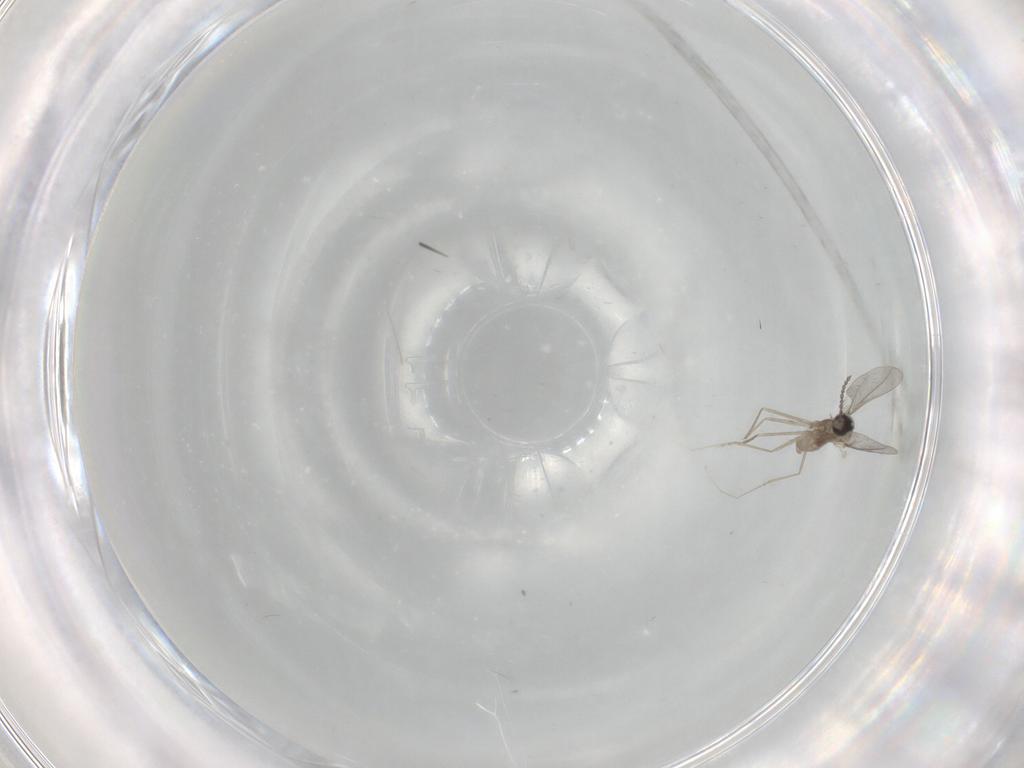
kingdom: Animalia
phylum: Arthropoda
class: Insecta
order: Diptera
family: Cecidomyiidae
